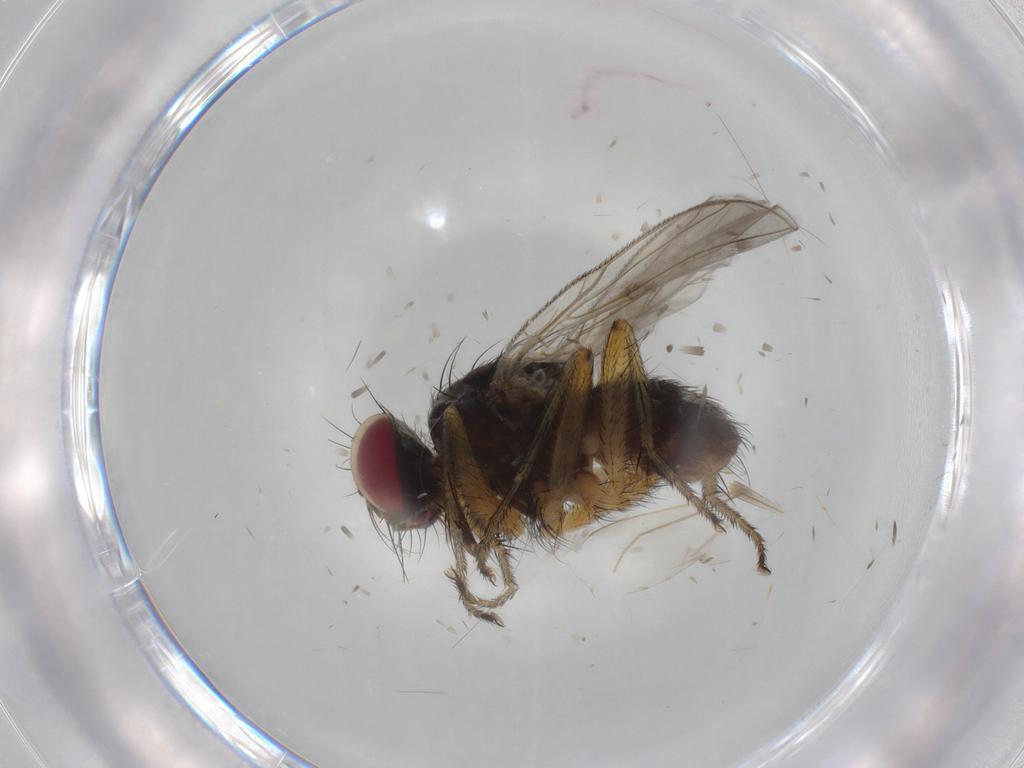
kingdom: Animalia
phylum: Arthropoda
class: Insecta
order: Diptera
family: Muscidae
